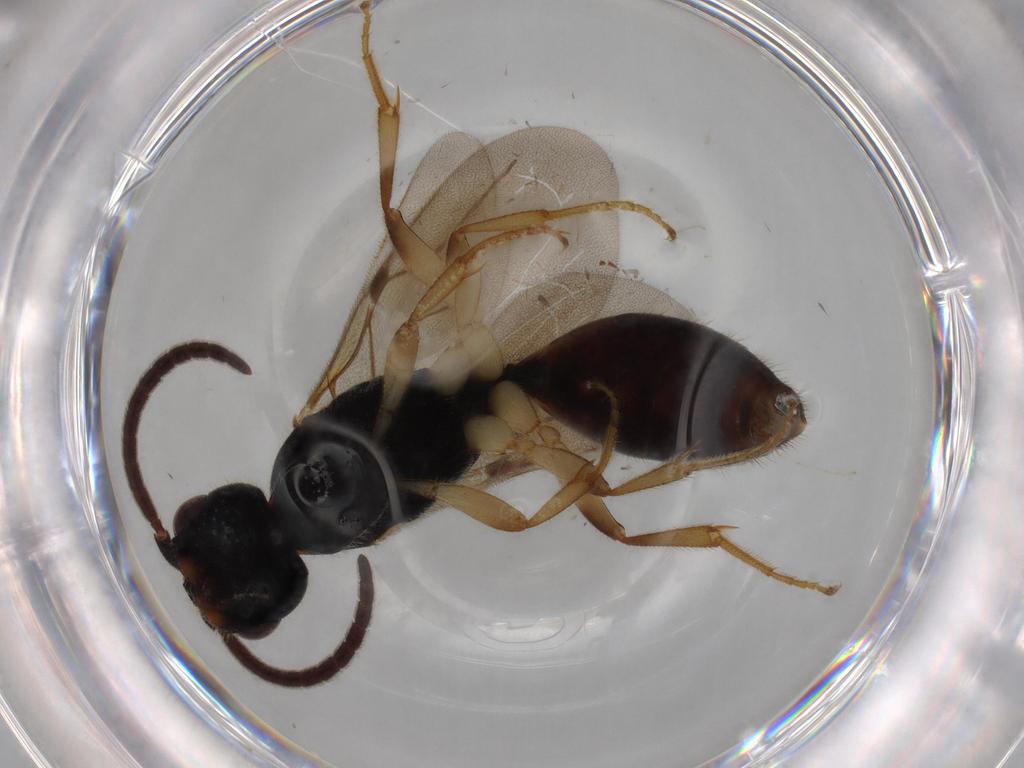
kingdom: Animalia
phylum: Arthropoda
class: Insecta
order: Hymenoptera
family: Bethylidae
